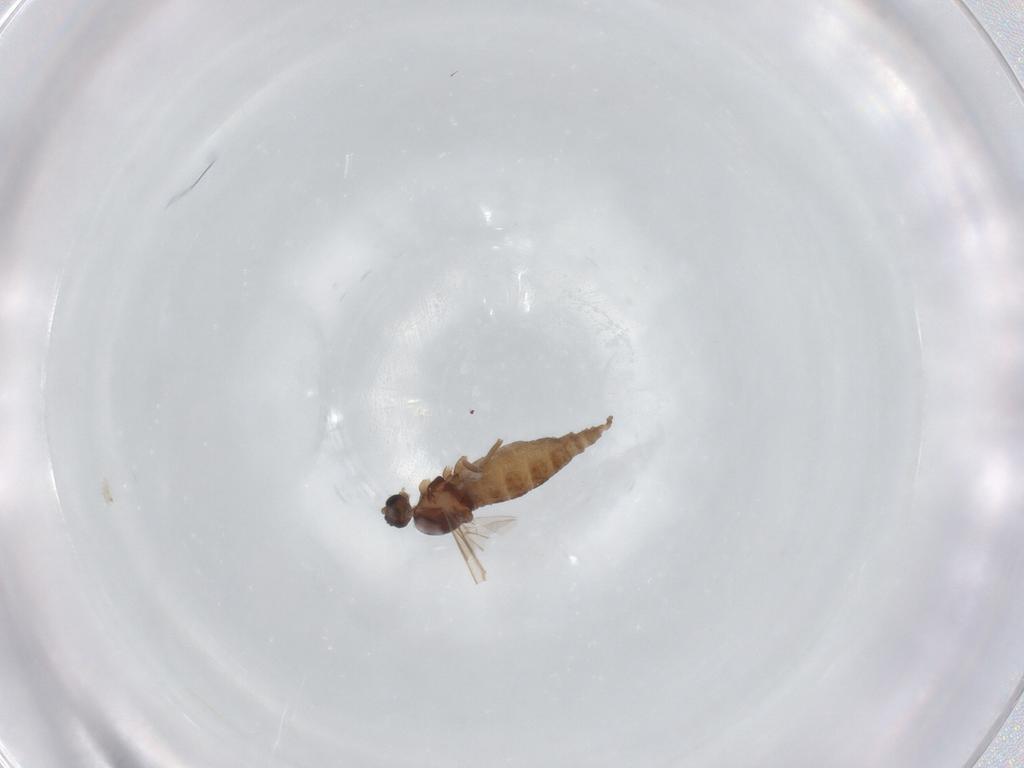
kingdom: Animalia
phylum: Arthropoda
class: Insecta
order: Diptera
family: Cecidomyiidae
